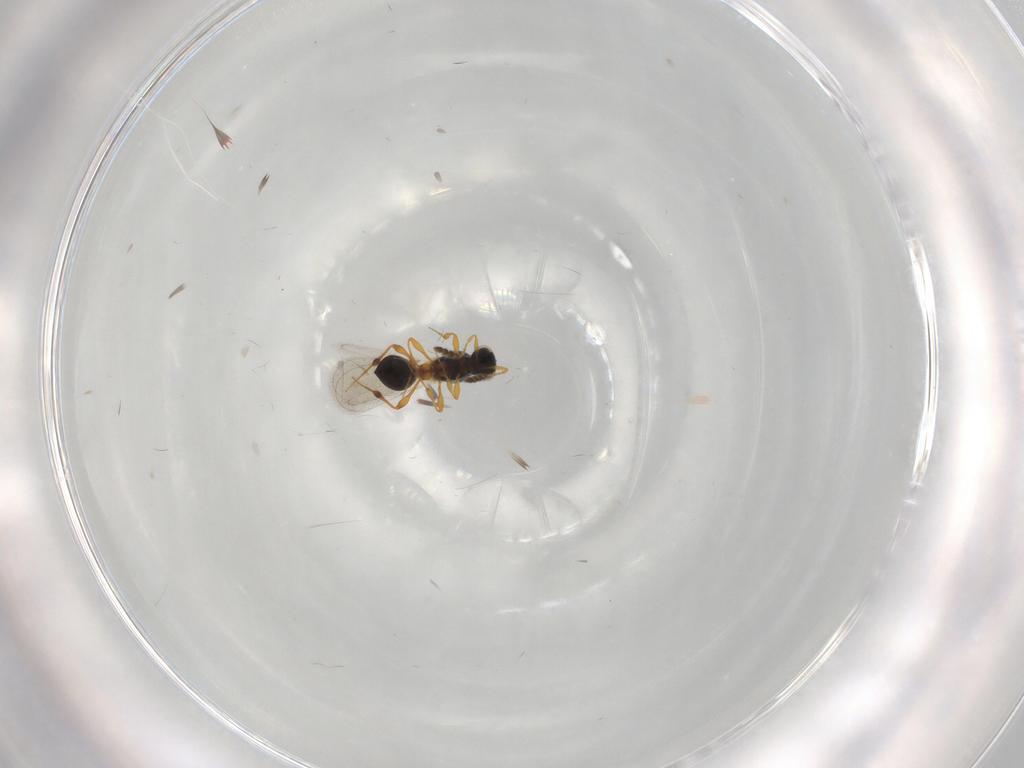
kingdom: Animalia
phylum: Arthropoda
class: Insecta
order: Hymenoptera
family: Platygastridae
